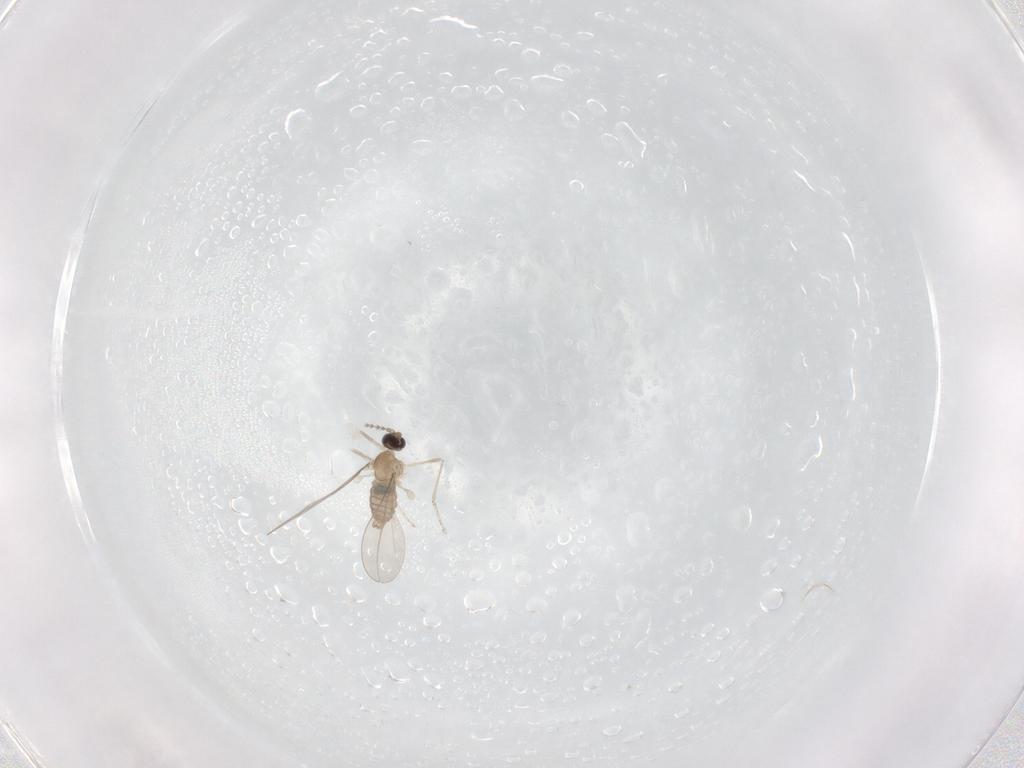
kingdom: Animalia
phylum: Arthropoda
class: Insecta
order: Diptera
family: Cecidomyiidae
